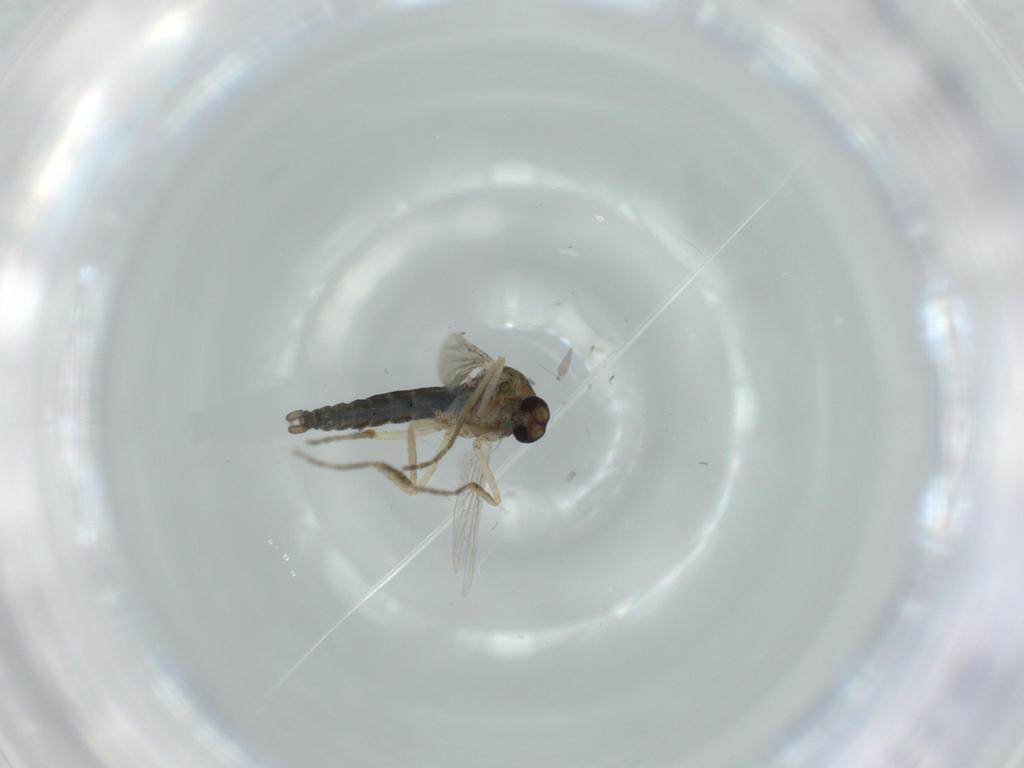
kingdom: Animalia
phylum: Arthropoda
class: Insecta
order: Diptera
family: Ceratopogonidae
